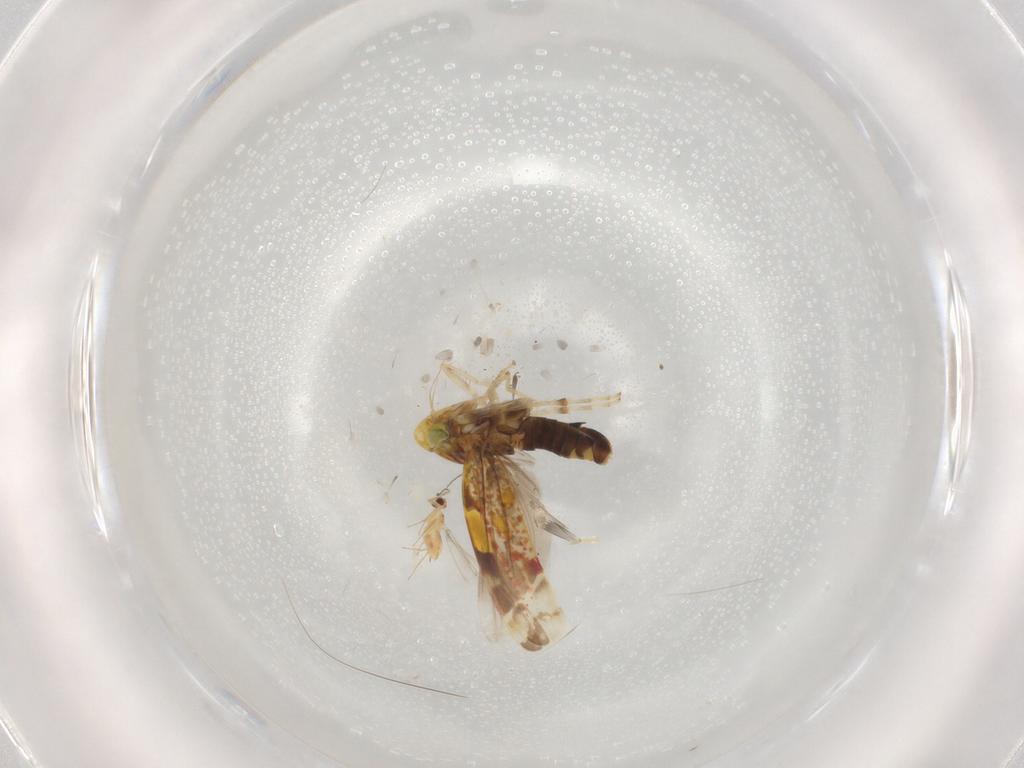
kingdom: Animalia
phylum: Arthropoda
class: Insecta
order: Hemiptera
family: Cicadellidae
